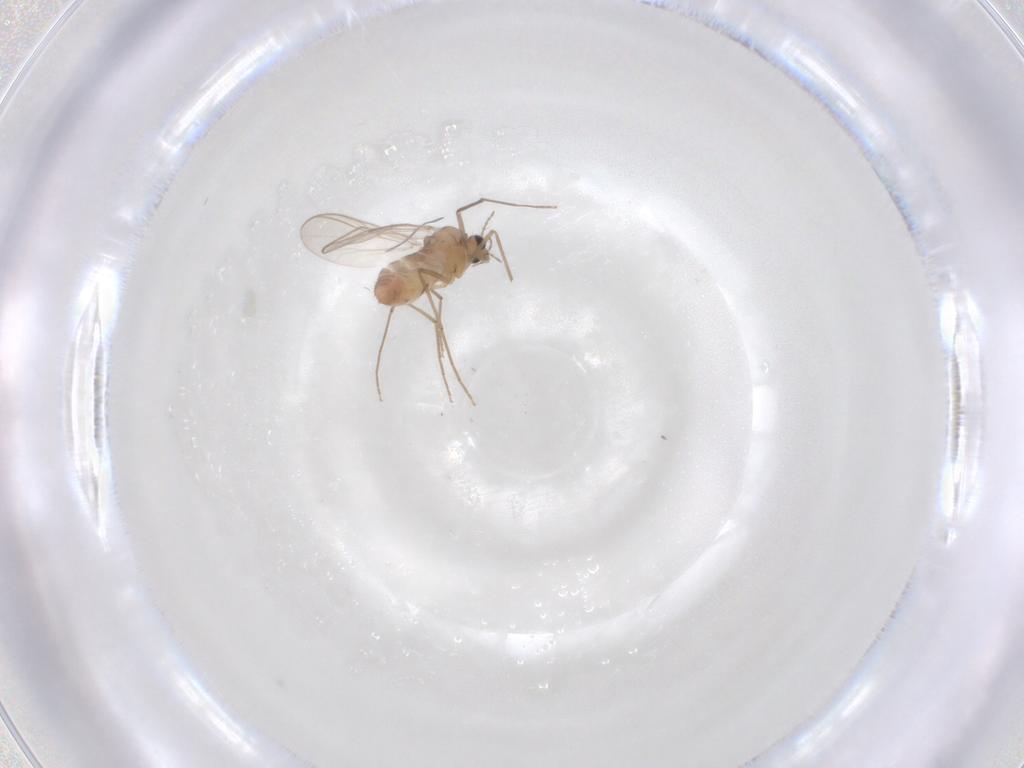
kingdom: Animalia
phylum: Arthropoda
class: Insecta
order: Diptera
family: Chironomidae
